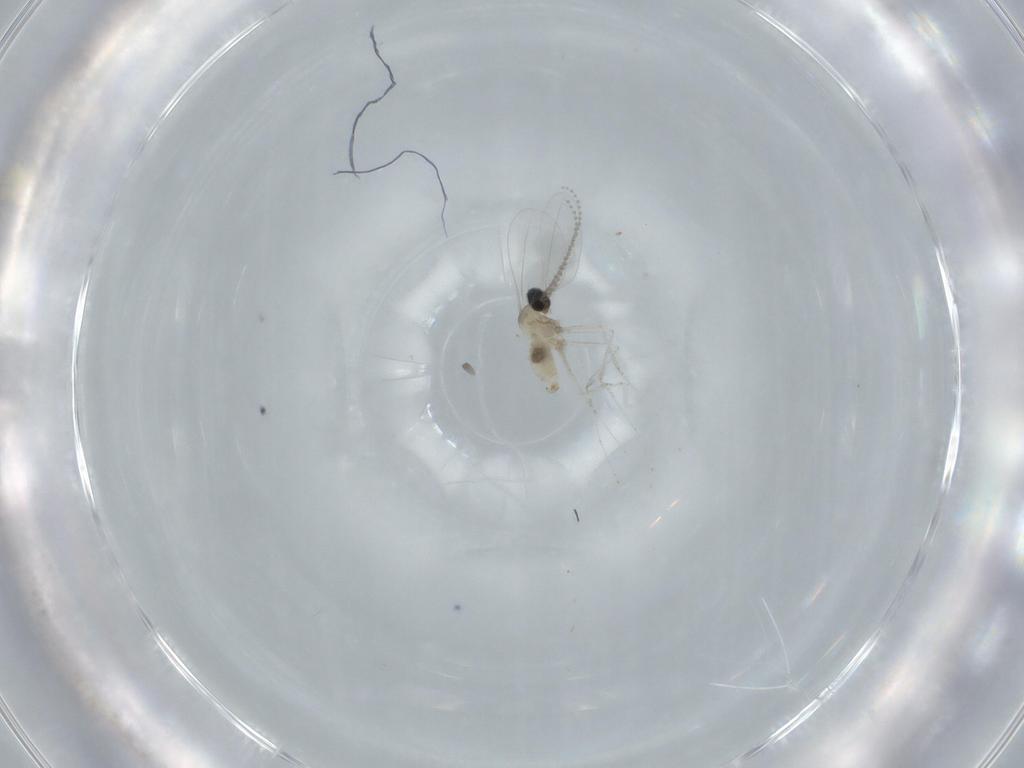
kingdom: Animalia
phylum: Arthropoda
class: Insecta
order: Diptera
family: Cecidomyiidae
